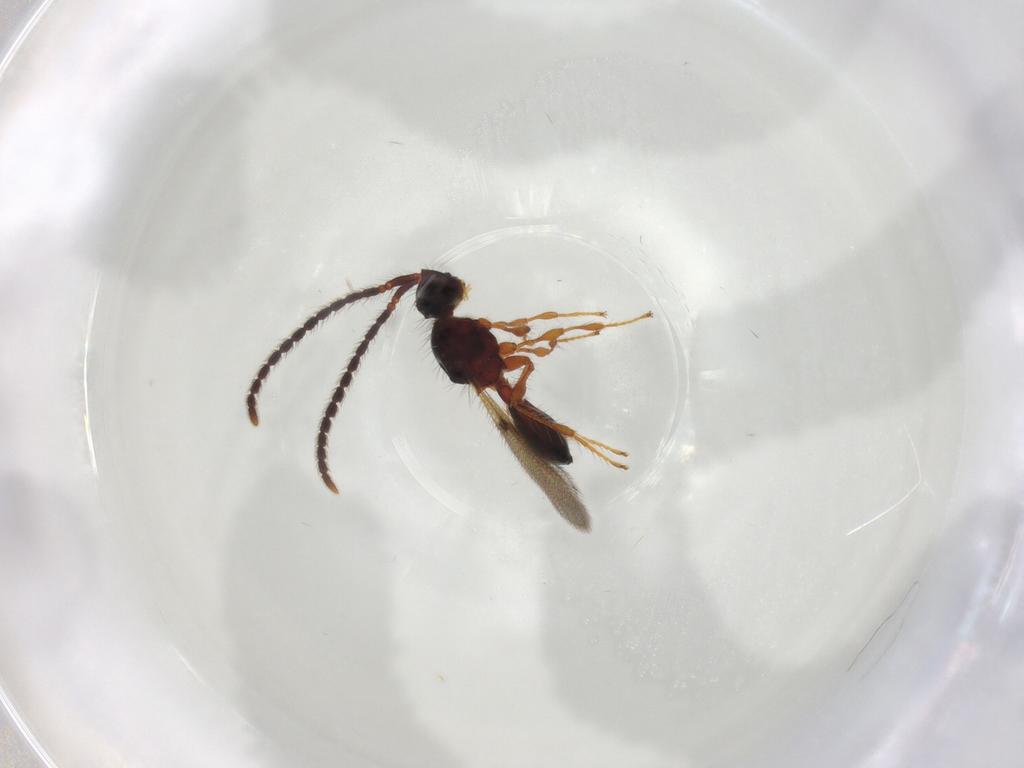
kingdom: Animalia
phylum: Arthropoda
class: Insecta
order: Hymenoptera
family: Diapriidae
